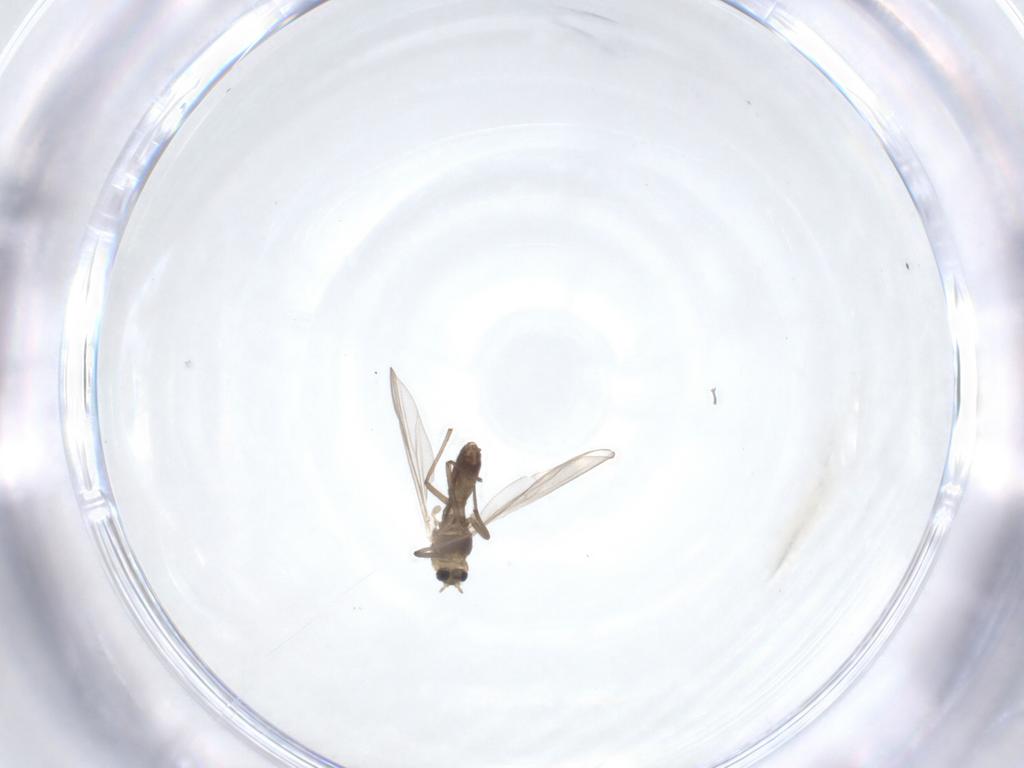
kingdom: Animalia
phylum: Arthropoda
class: Insecta
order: Diptera
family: Chironomidae
